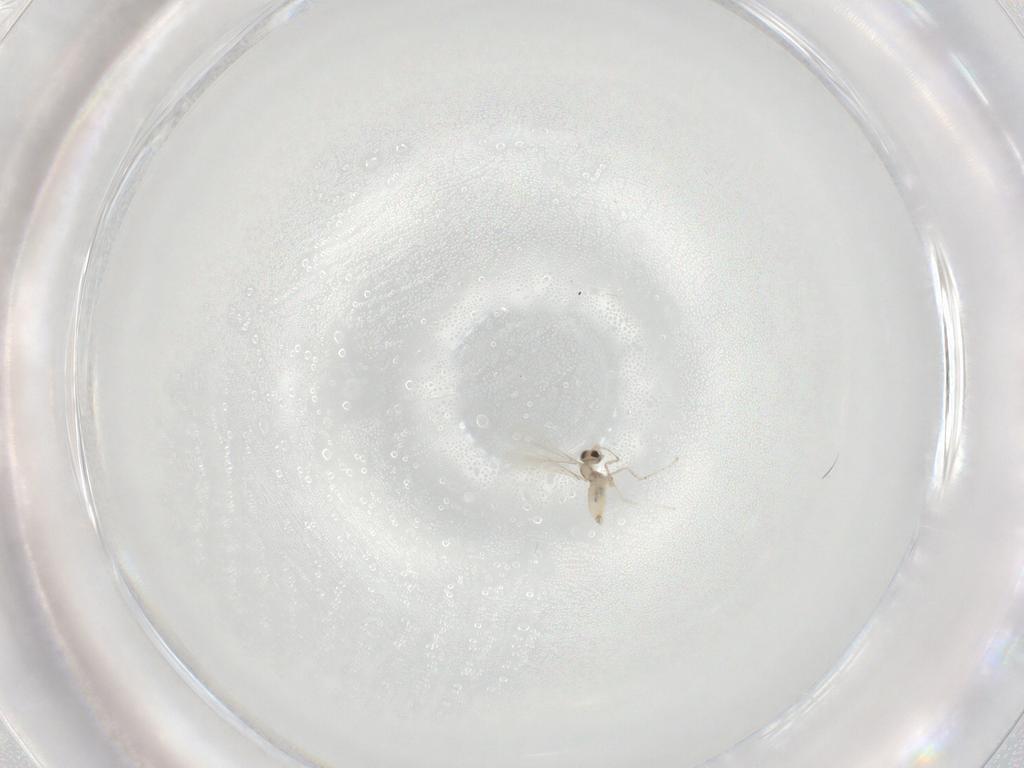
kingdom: Animalia
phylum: Arthropoda
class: Insecta
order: Diptera
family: Cecidomyiidae
